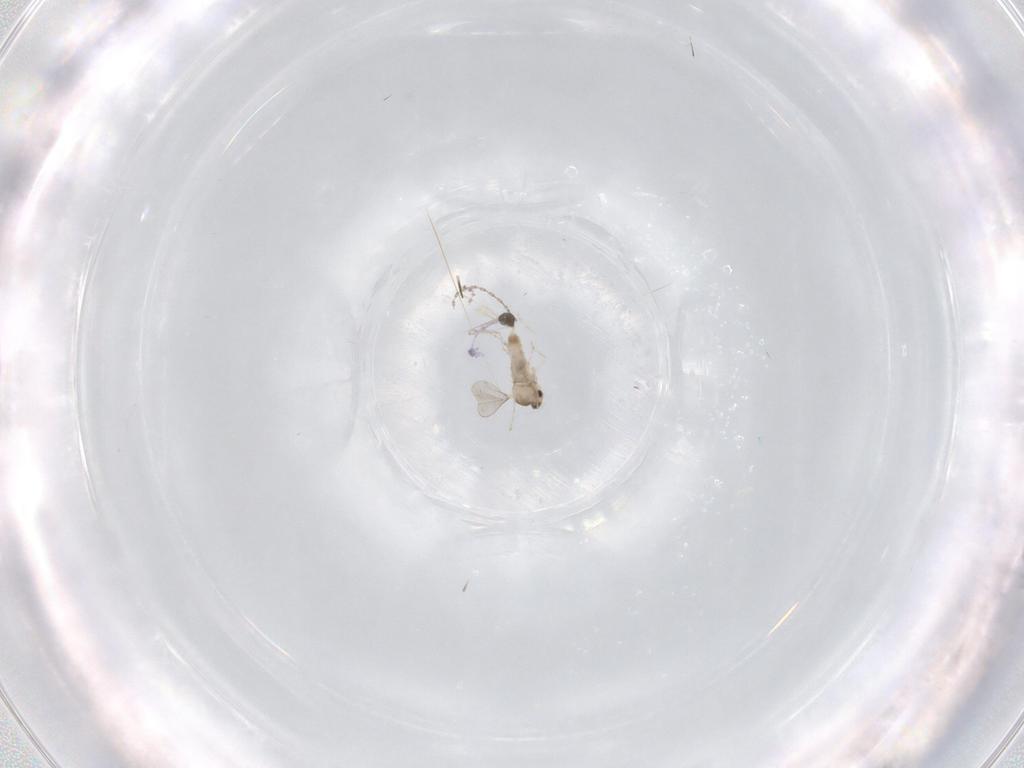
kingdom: Animalia
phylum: Arthropoda
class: Insecta
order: Diptera
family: Cecidomyiidae
